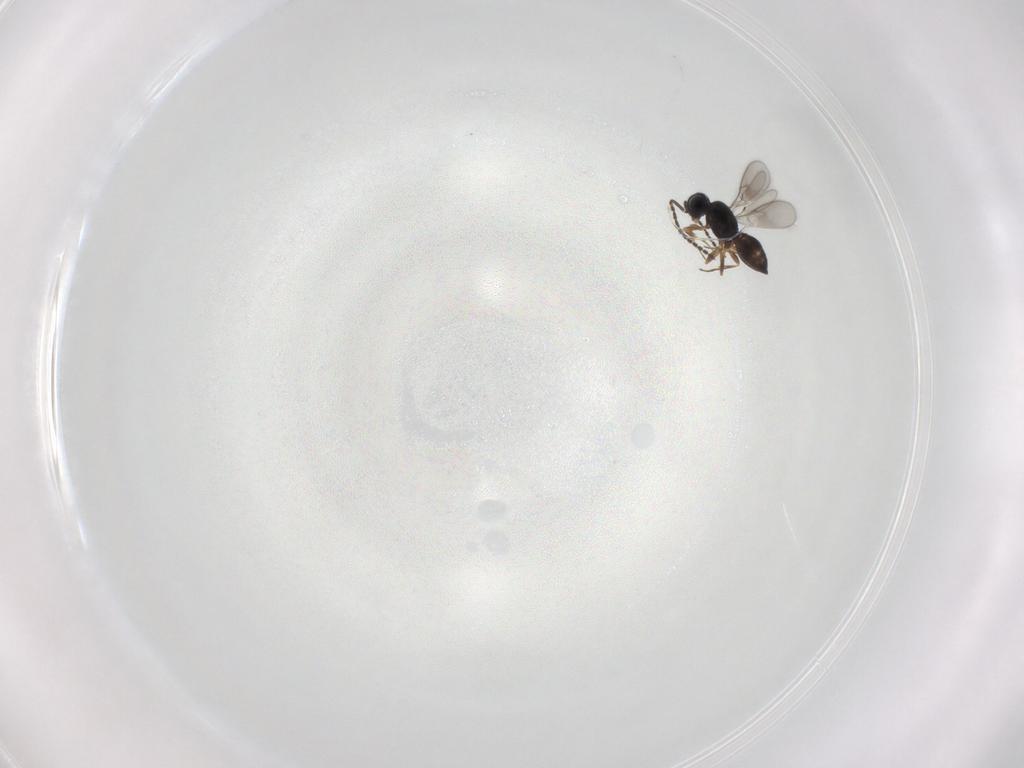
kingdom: Animalia
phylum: Arthropoda
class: Insecta
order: Hymenoptera
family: Scelionidae
